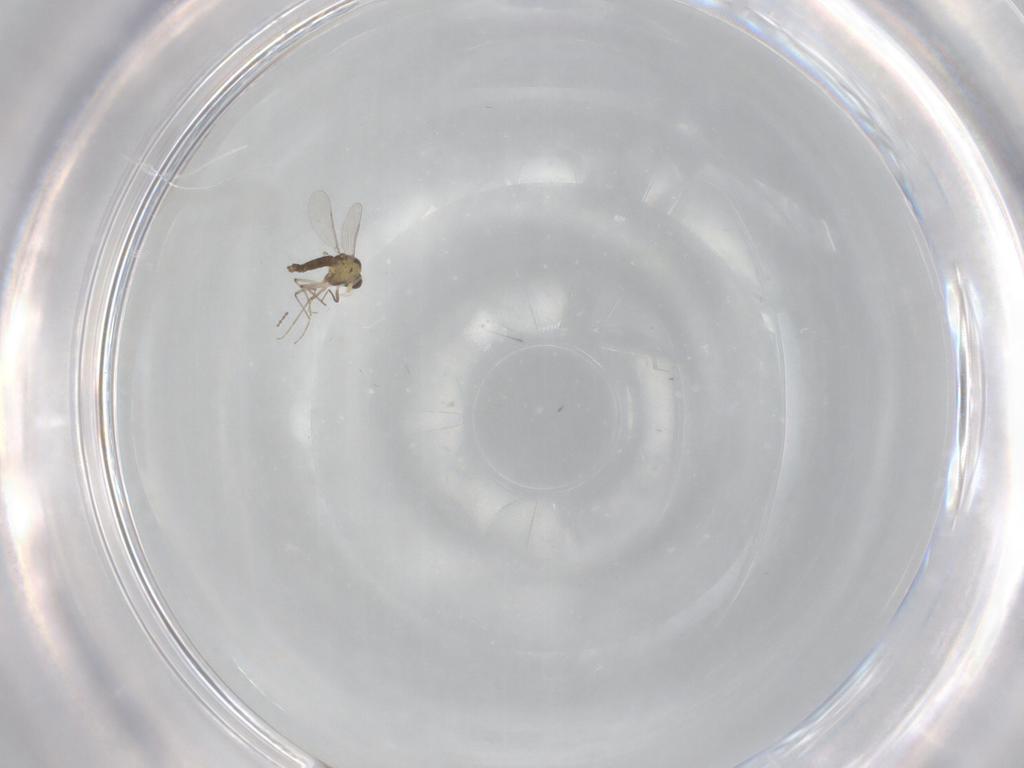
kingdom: Animalia
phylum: Arthropoda
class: Insecta
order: Diptera
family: Chironomidae
